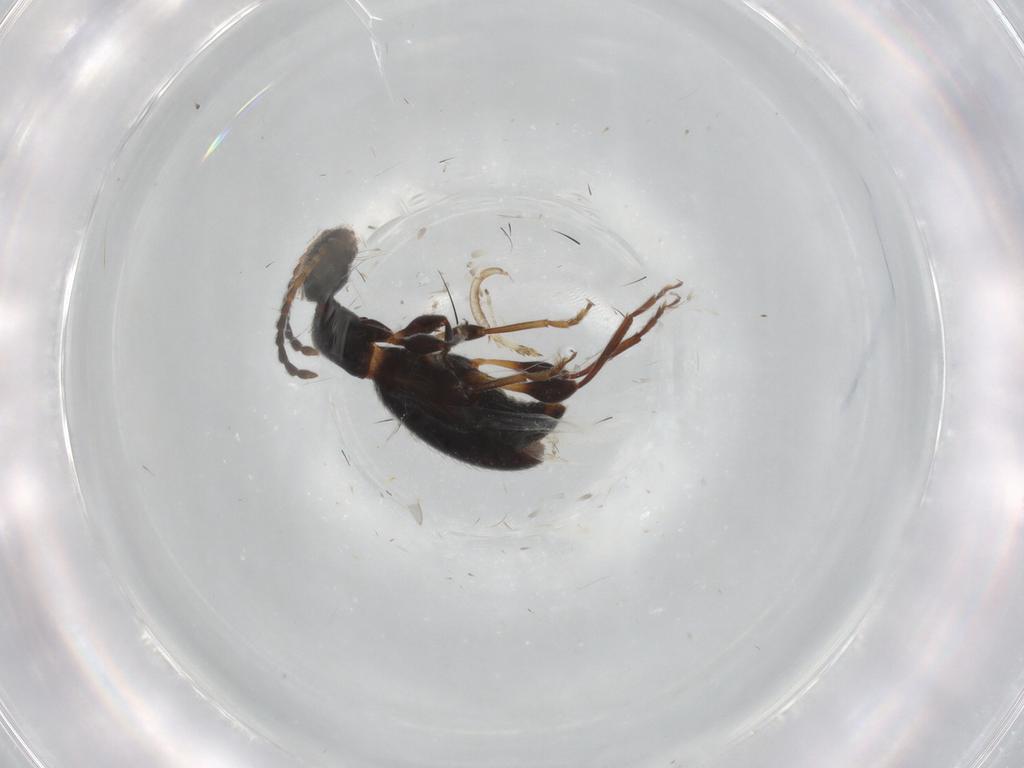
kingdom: Animalia
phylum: Arthropoda
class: Insecta
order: Coleoptera
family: Anthicidae
